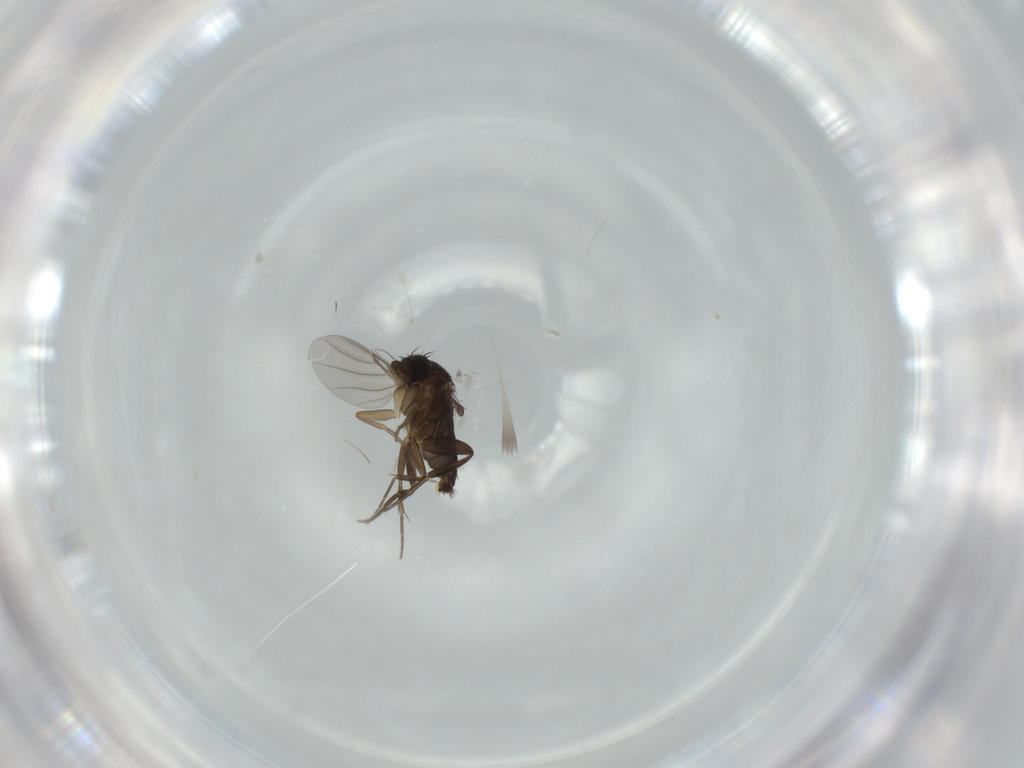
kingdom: Animalia
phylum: Arthropoda
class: Insecta
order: Diptera
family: Phoridae
